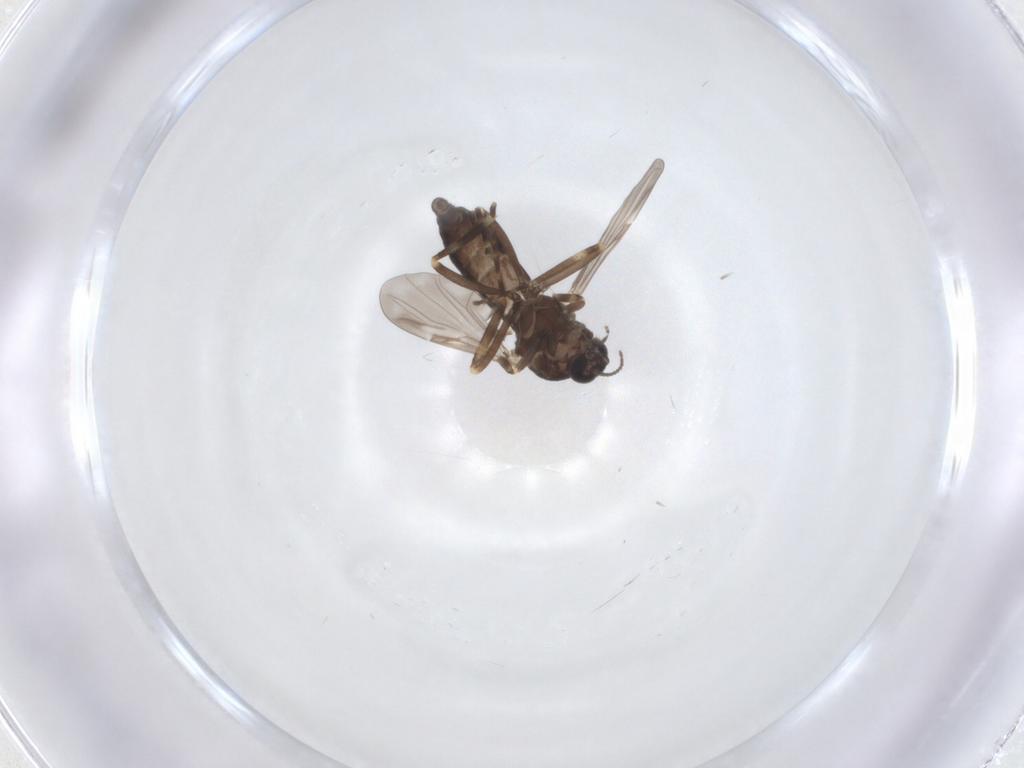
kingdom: Animalia
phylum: Arthropoda
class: Insecta
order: Diptera
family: Ceratopogonidae
